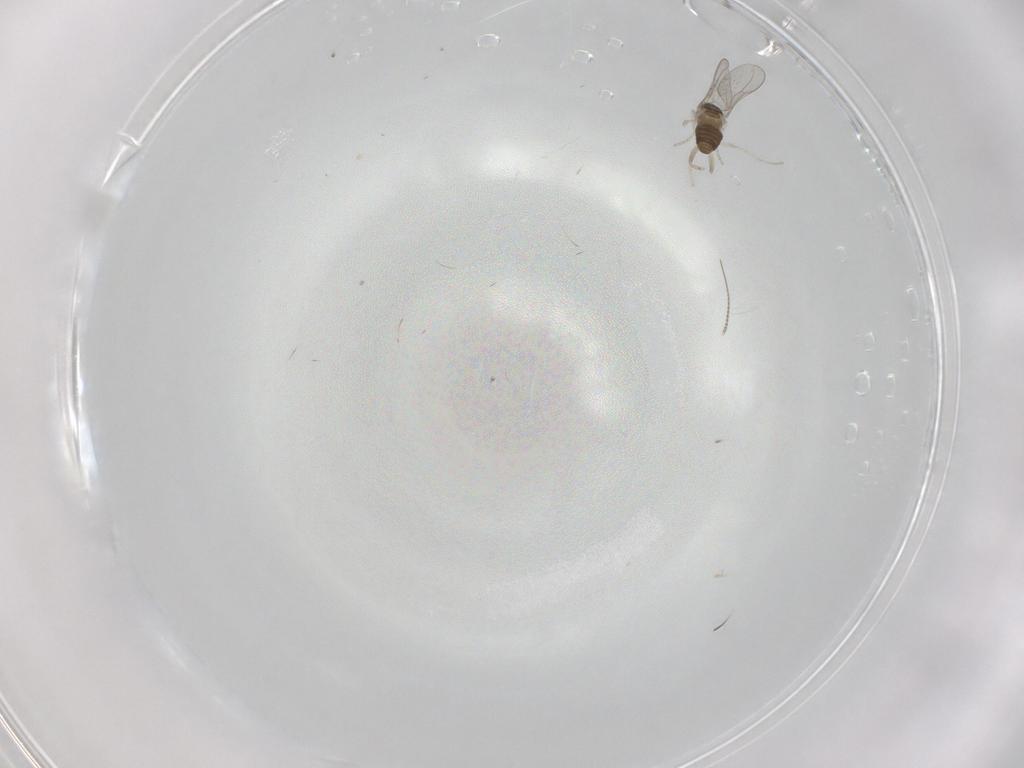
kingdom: Animalia
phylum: Arthropoda
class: Insecta
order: Diptera
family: Cecidomyiidae
